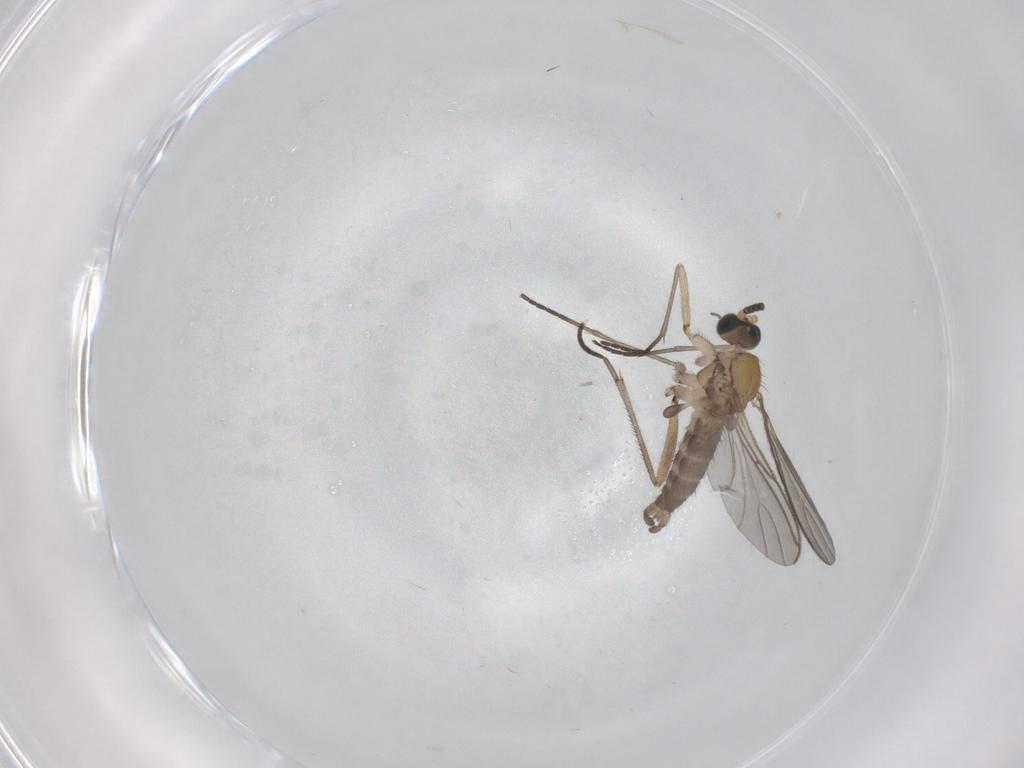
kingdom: Animalia
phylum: Arthropoda
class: Insecta
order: Diptera
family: Sciaridae
